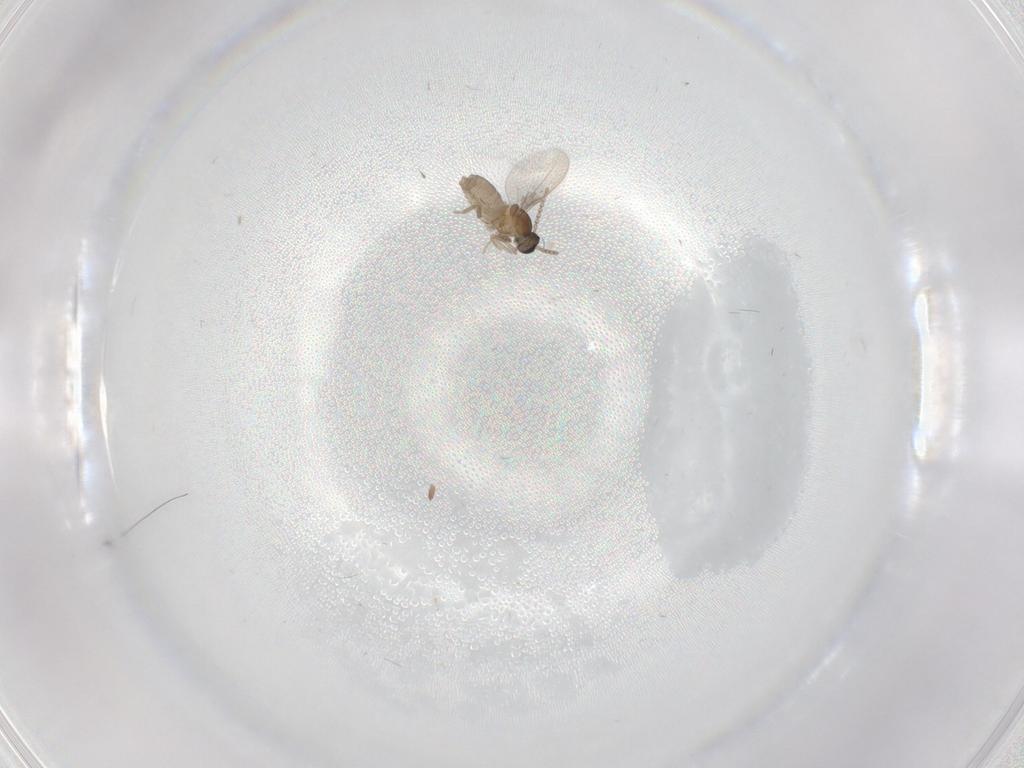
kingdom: Animalia
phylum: Arthropoda
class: Insecta
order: Diptera
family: Cecidomyiidae
